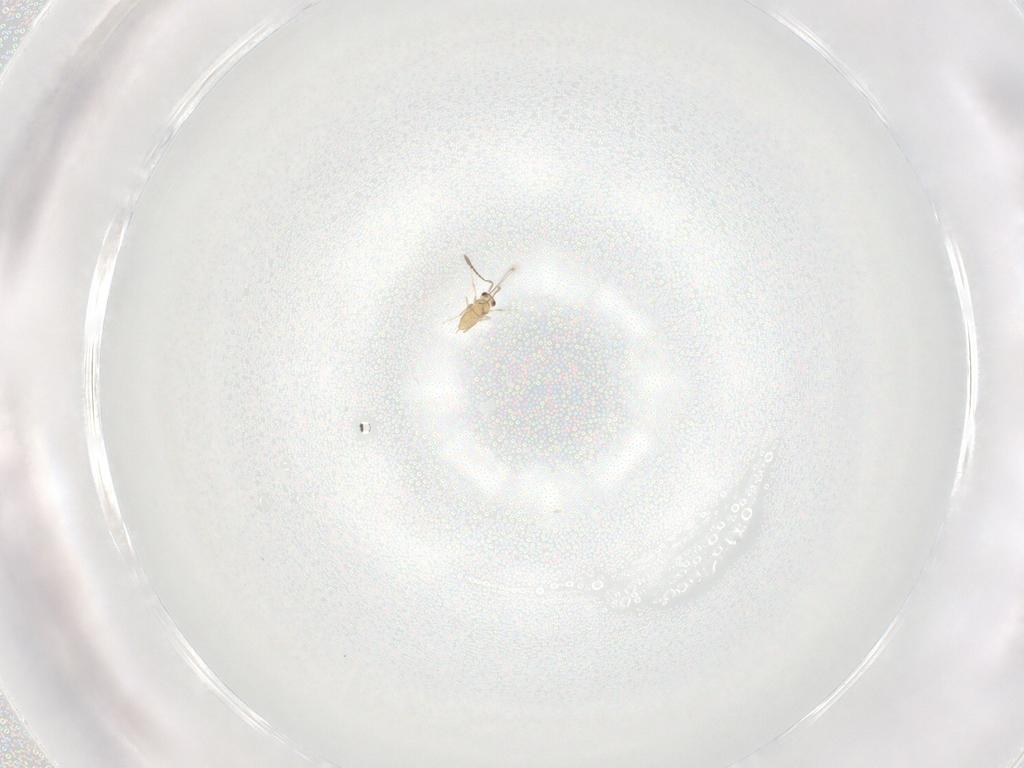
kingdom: Animalia
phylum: Arthropoda
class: Insecta
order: Hymenoptera
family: Mymaridae
